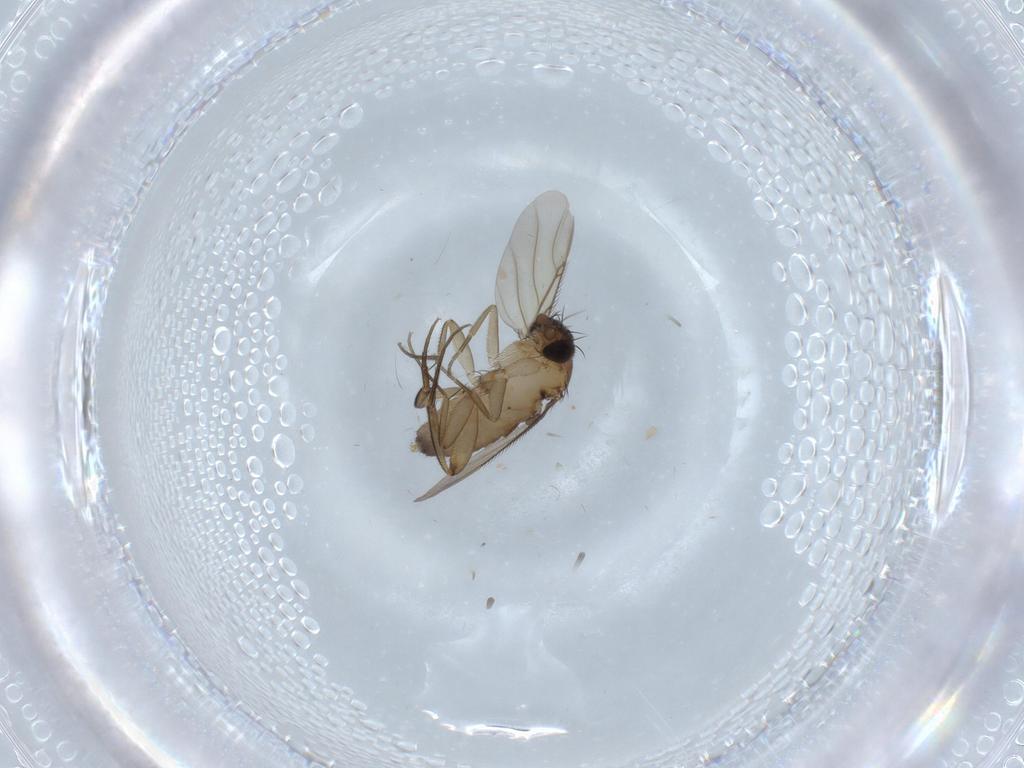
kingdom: Animalia
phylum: Arthropoda
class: Insecta
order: Diptera
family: Phoridae
